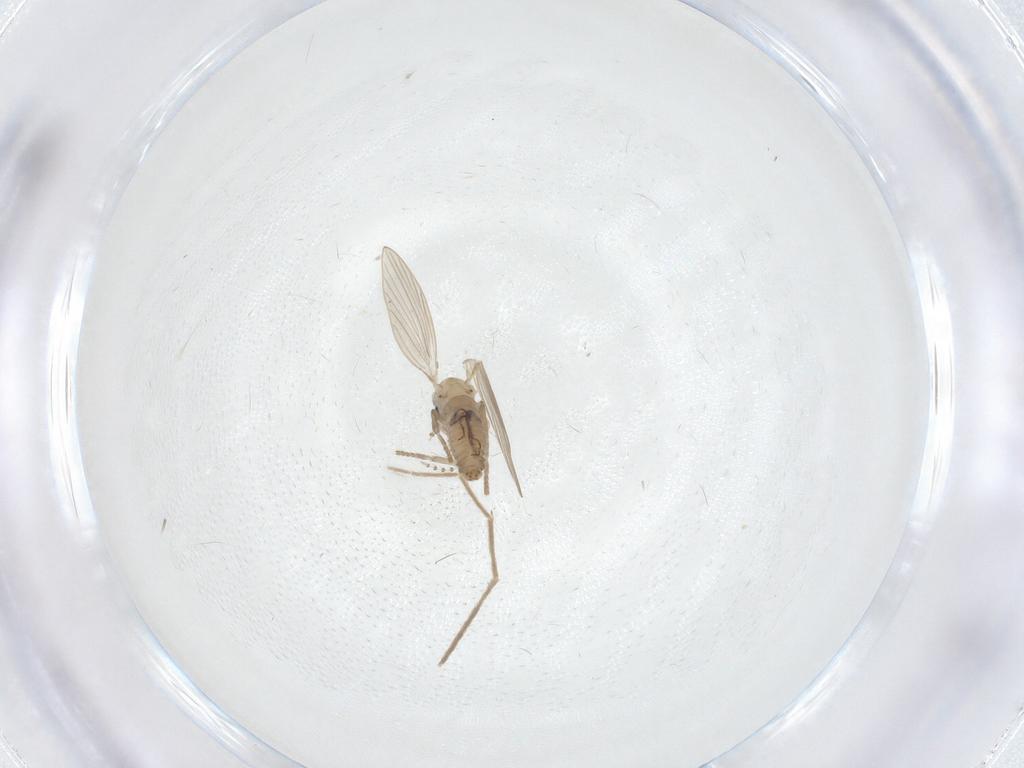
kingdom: Animalia
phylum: Arthropoda
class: Insecta
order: Diptera
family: Psychodidae
